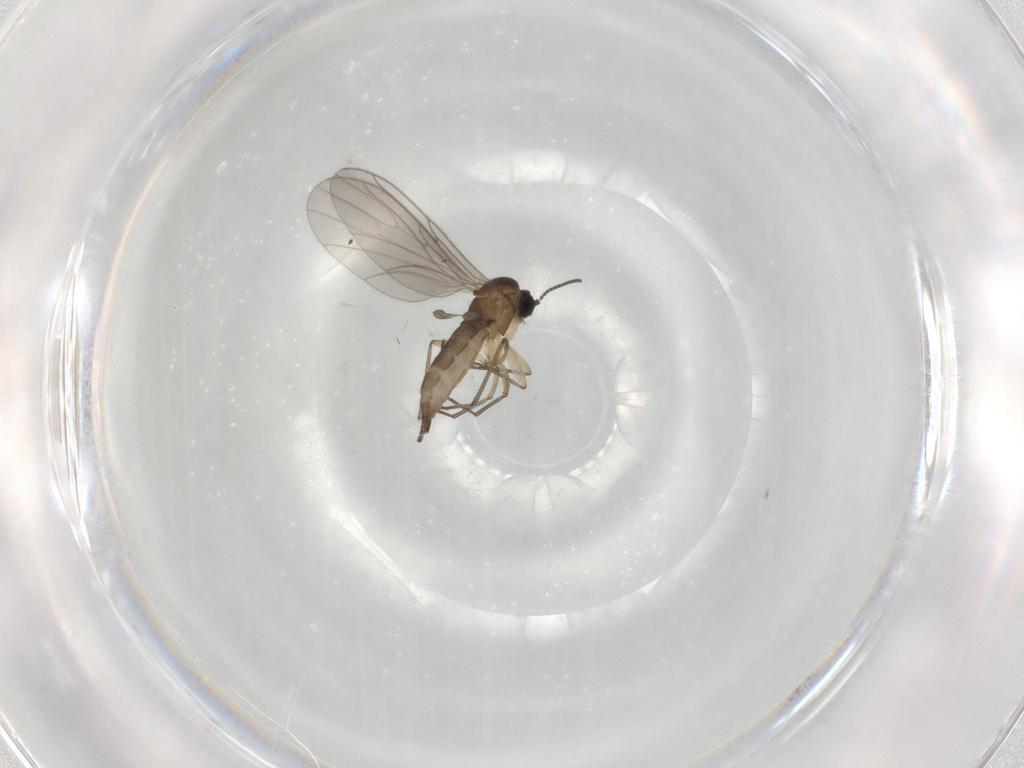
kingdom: Animalia
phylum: Arthropoda
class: Insecta
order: Diptera
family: Sciaridae
